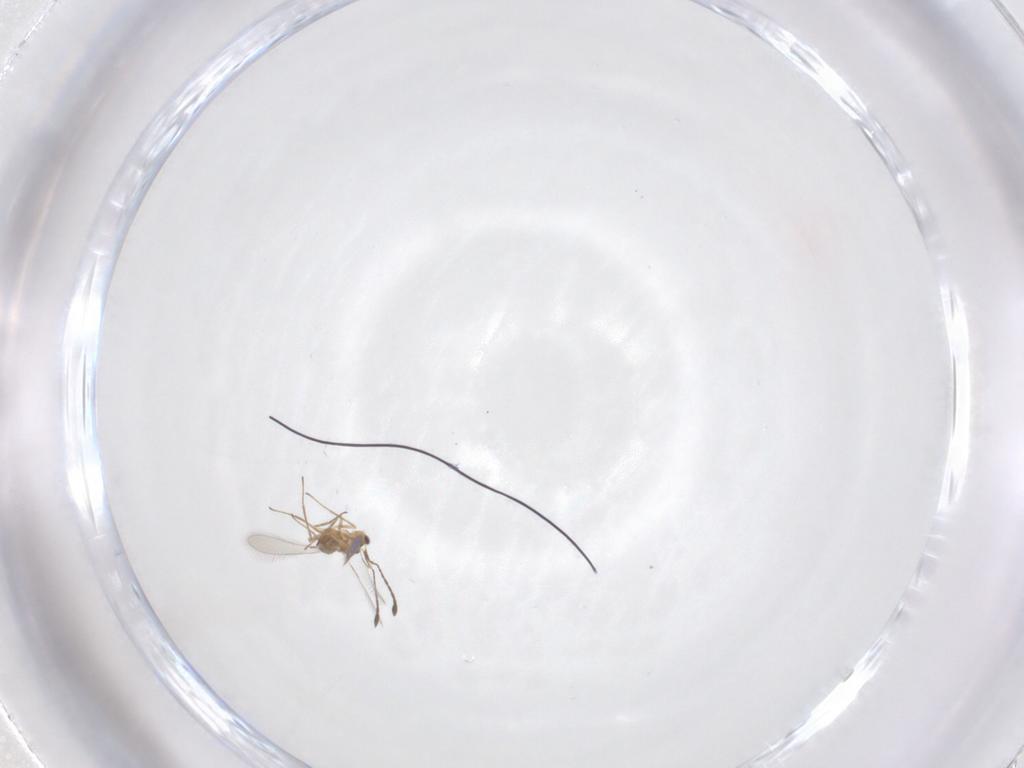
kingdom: Animalia
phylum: Arthropoda
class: Insecta
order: Hymenoptera
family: Mymaridae
